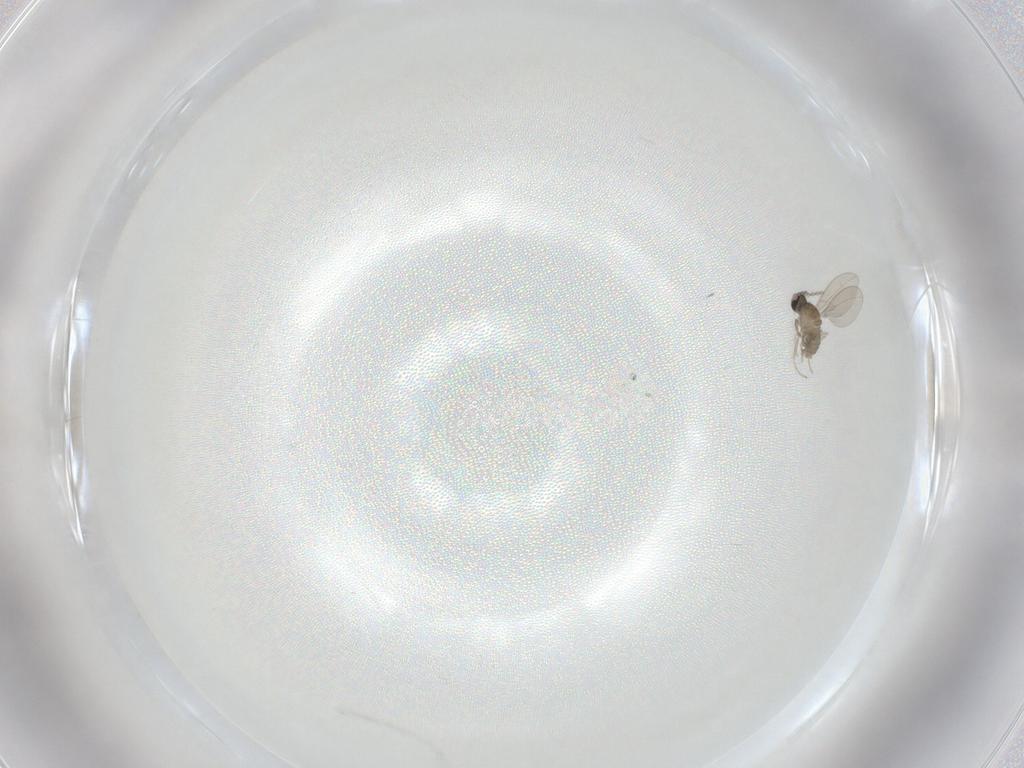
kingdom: Animalia
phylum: Arthropoda
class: Insecta
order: Diptera
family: Cecidomyiidae
